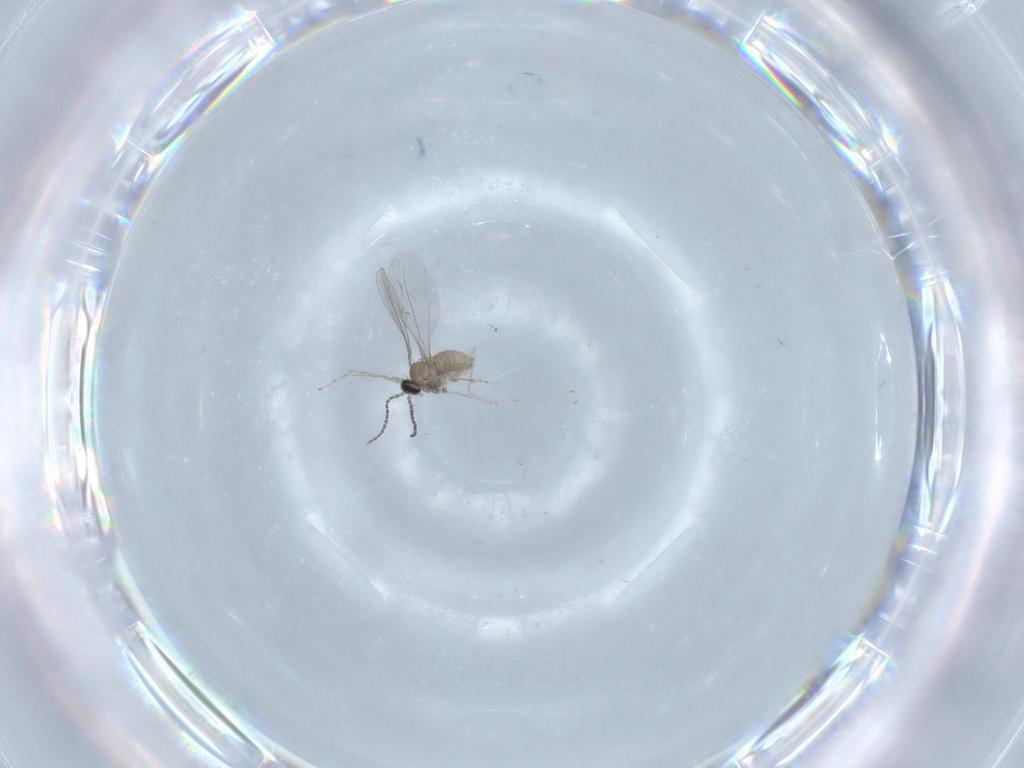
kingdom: Animalia
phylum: Arthropoda
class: Insecta
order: Diptera
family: Cecidomyiidae
